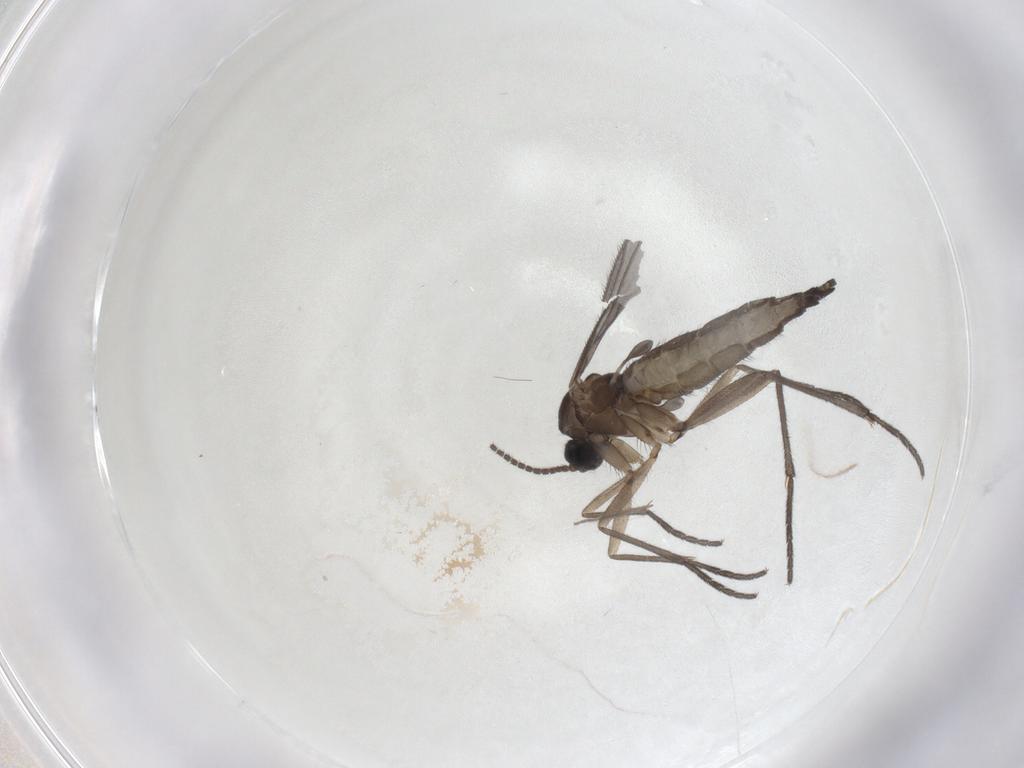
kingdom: Animalia
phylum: Arthropoda
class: Insecta
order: Diptera
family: Sciaridae
